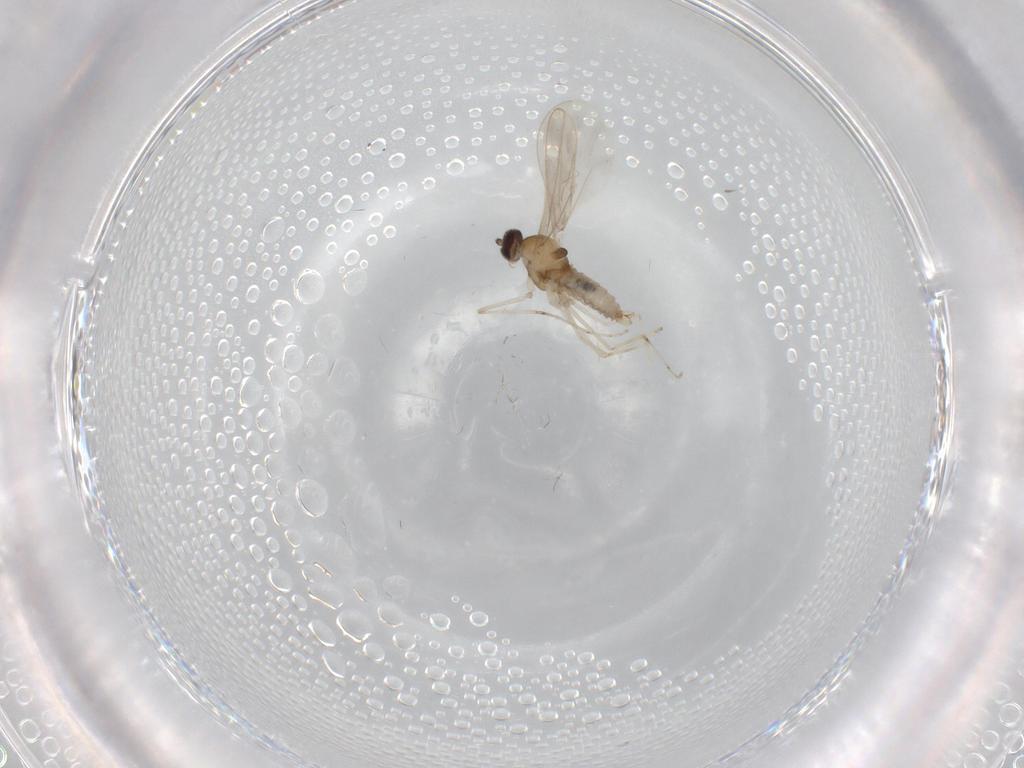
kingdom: Animalia
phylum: Arthropoda
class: Insecta
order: Diptera
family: Cecidomyiidae
